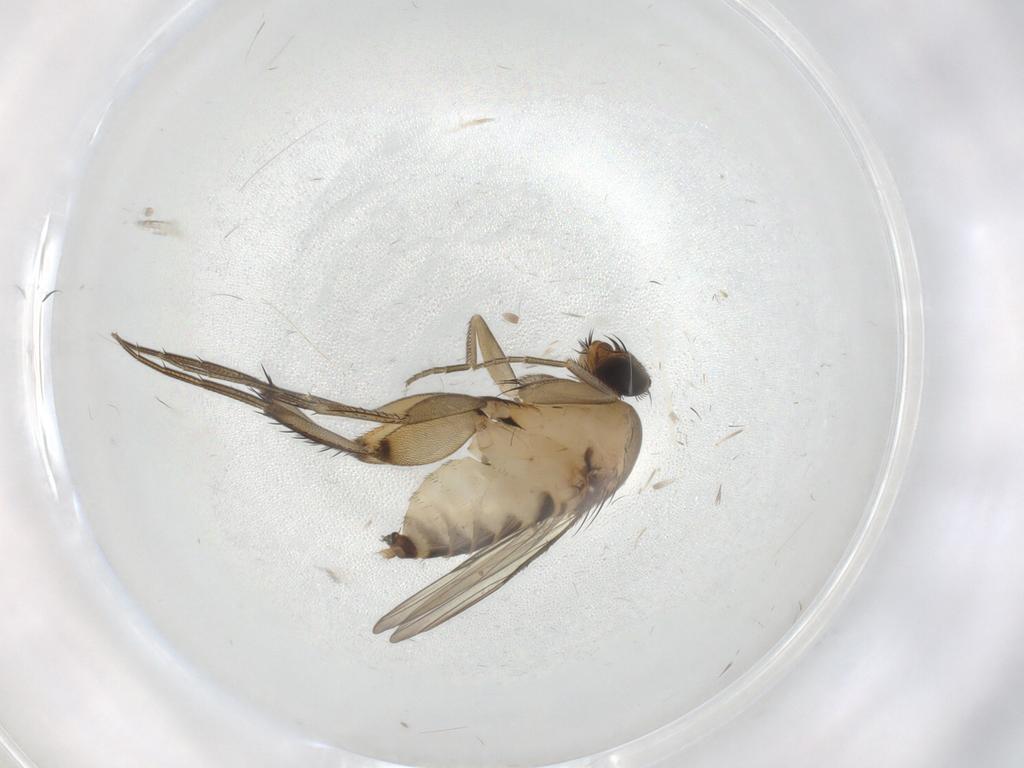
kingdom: Animalia
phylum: Arthropoda
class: Insecta
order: Diptera
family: Phoridae
